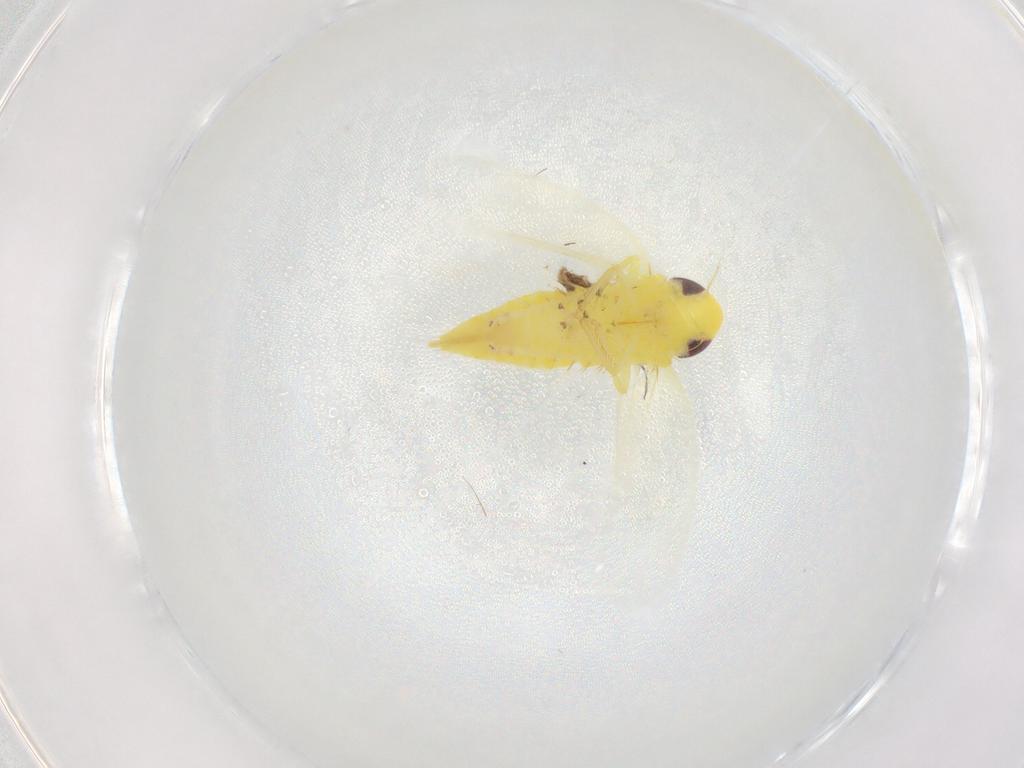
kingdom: Animalia
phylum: Arthropoda
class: Insecta
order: Hemiptera
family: Cicadellidae
